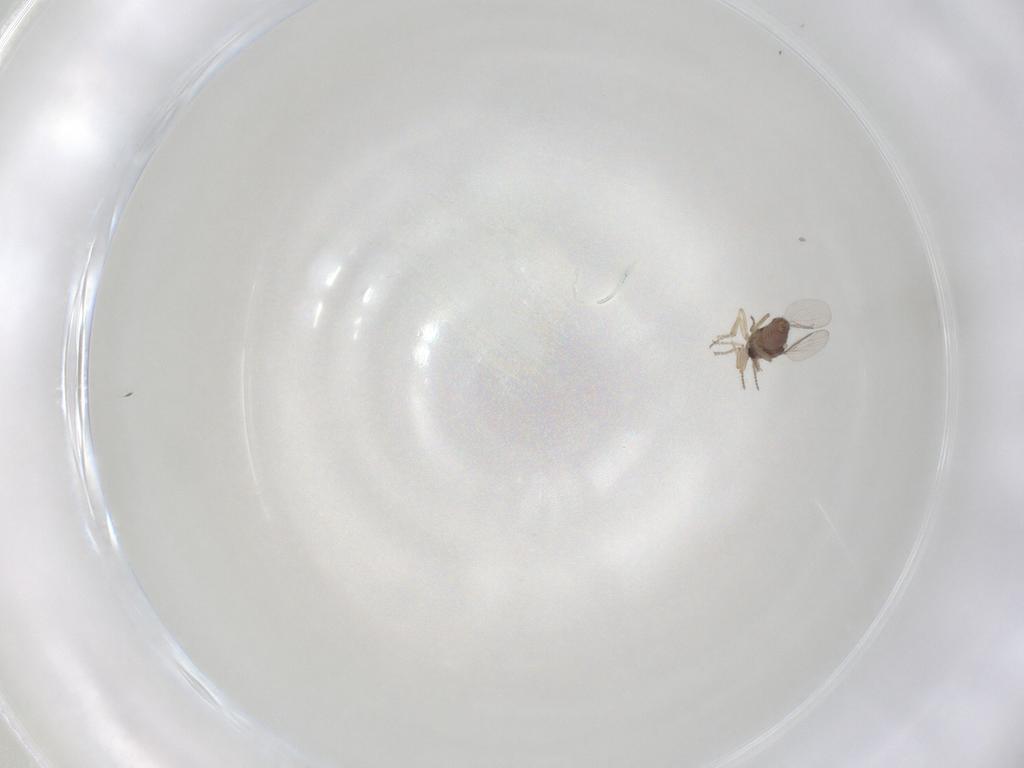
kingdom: Animalia
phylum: Arthropoda
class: Insecta
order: Diptera
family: Ceratopogonidae
